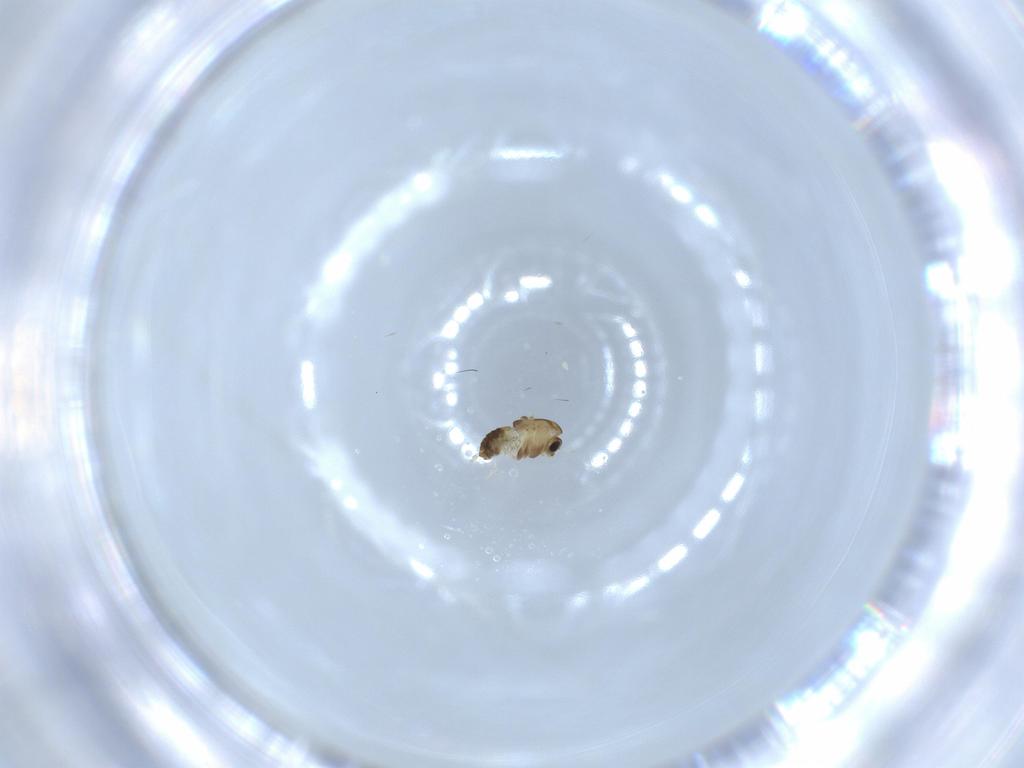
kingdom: Animalia
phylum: Arthropoda
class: Insecta
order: Diptera
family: Chironomidae
